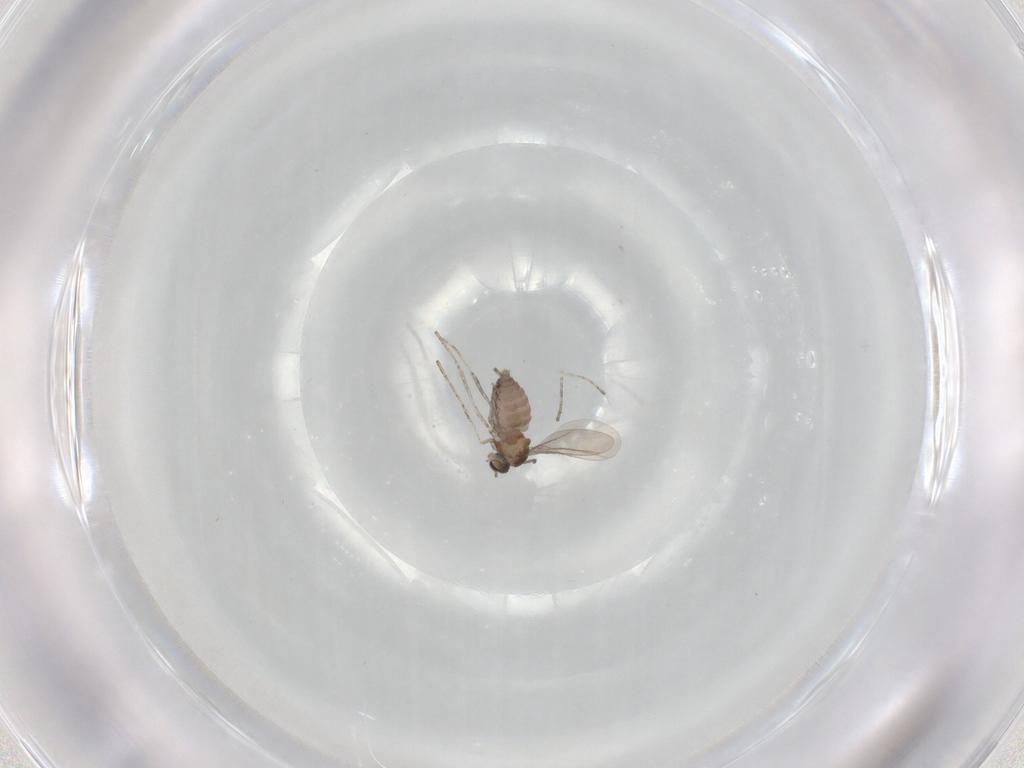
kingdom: Animalia
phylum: Arthropoda
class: Insecta
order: Diptera
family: Cecidomyiidae
